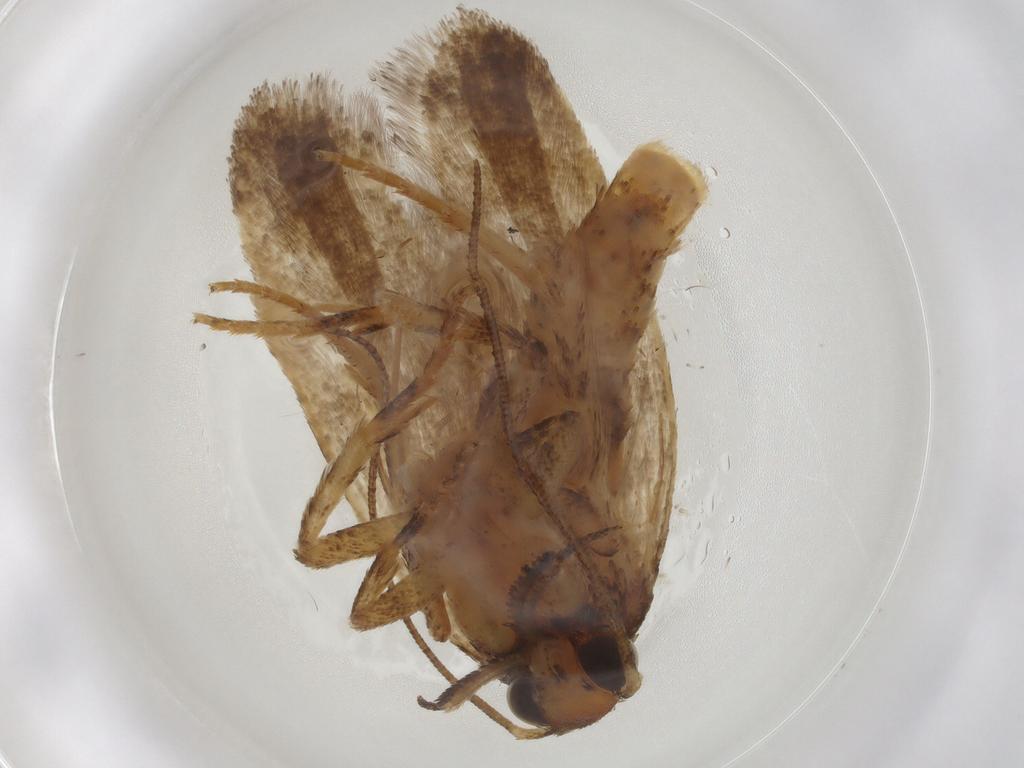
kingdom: Animalia
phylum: Arthropoda
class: Insecta
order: Lepidoptera
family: Gelechiidae
